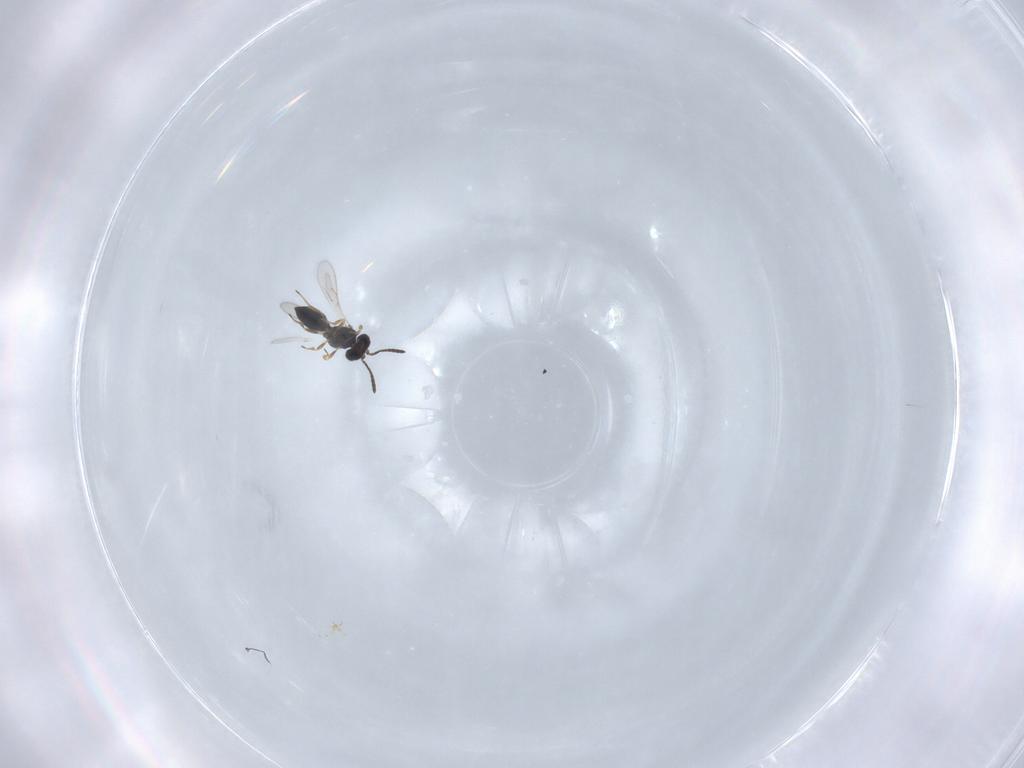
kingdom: Animalia
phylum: Arthropoda
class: Insecta
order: Hymenoptera
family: Scelionidae
